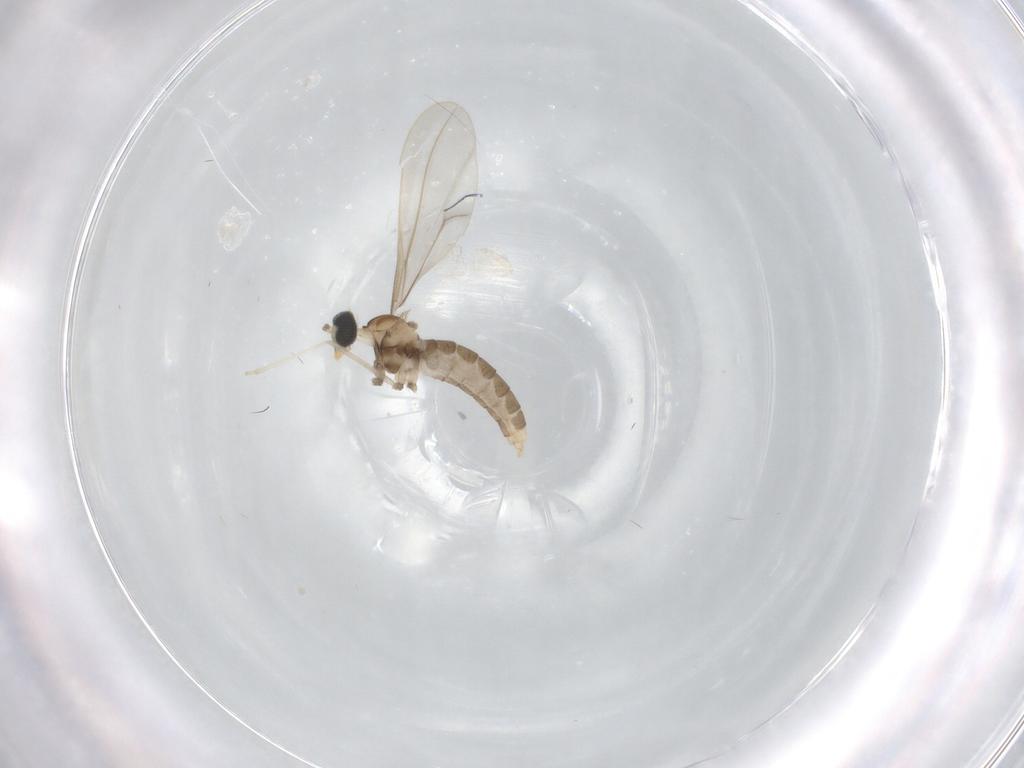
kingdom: Animalia
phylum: Arthropoda
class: Insecta
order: Diptera
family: Cecidomyiidae
